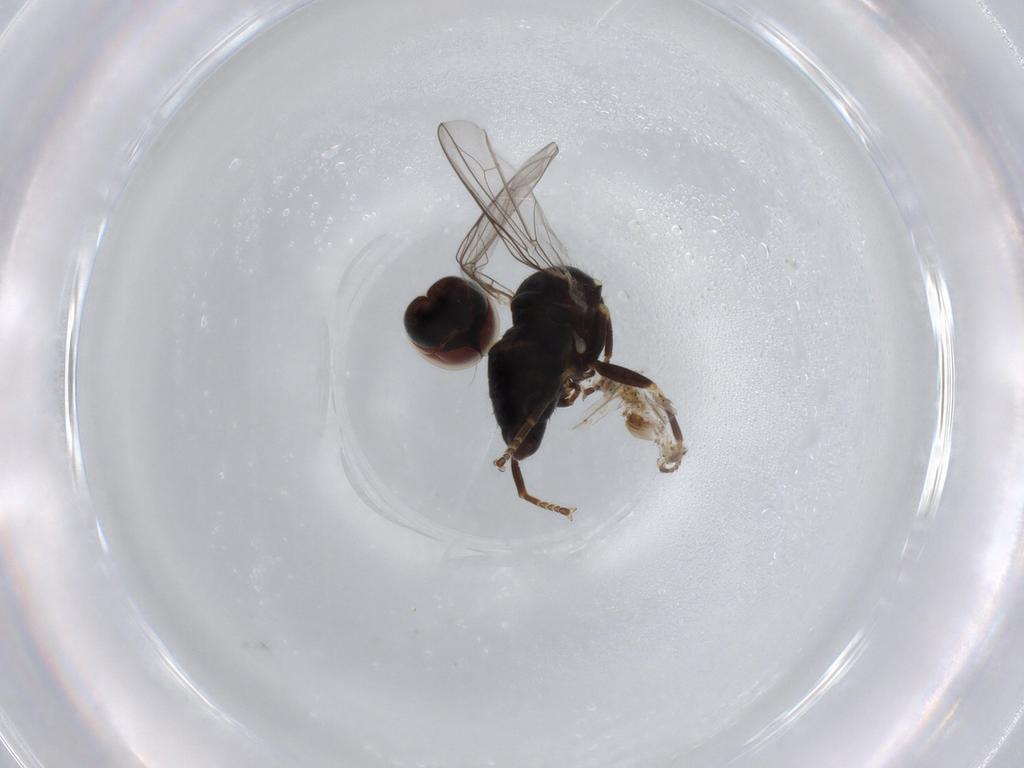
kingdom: Animalia
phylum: Arthropoda
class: Insecta
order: Diptera
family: Pipunculidae
